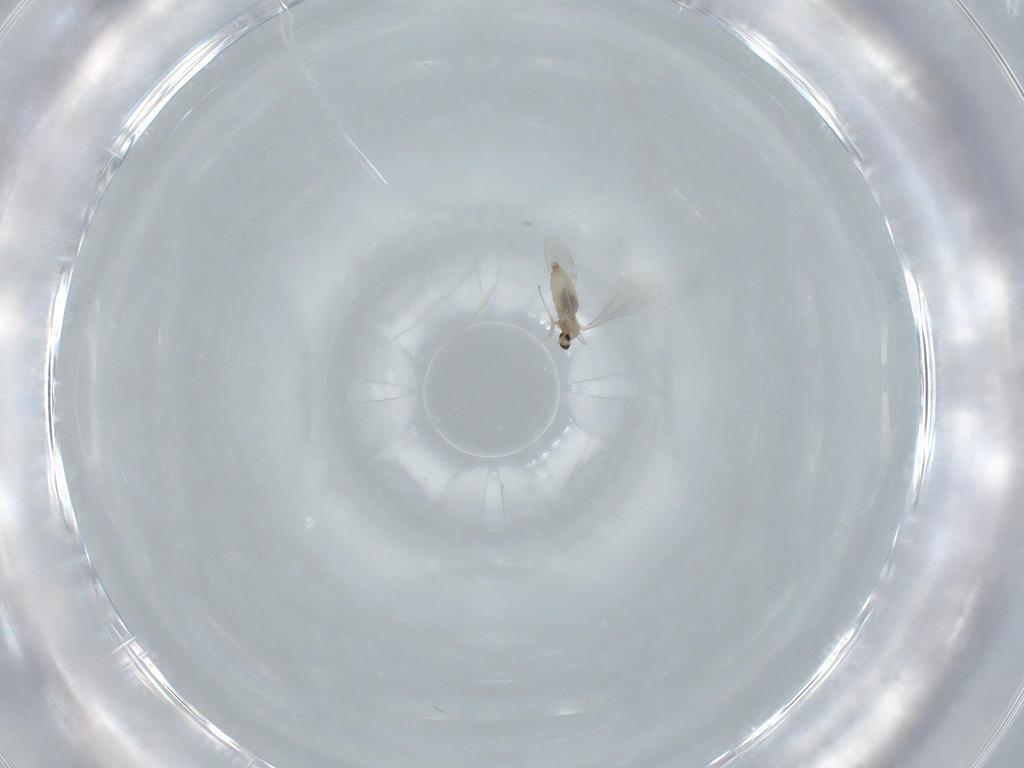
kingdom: Animalia
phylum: Arthropoda
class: Insecta
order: Diptera
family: Cecidomyiidae
